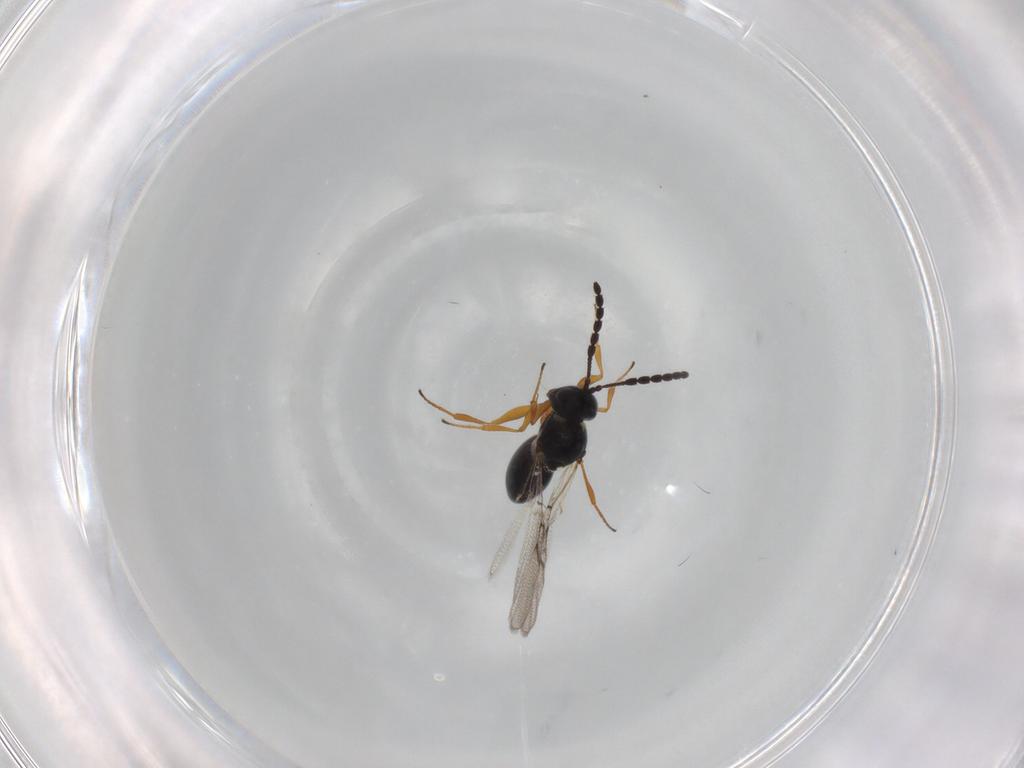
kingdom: Animalia
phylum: Arthropoda
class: Insecta
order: Hymenoptera
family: Figitidae
